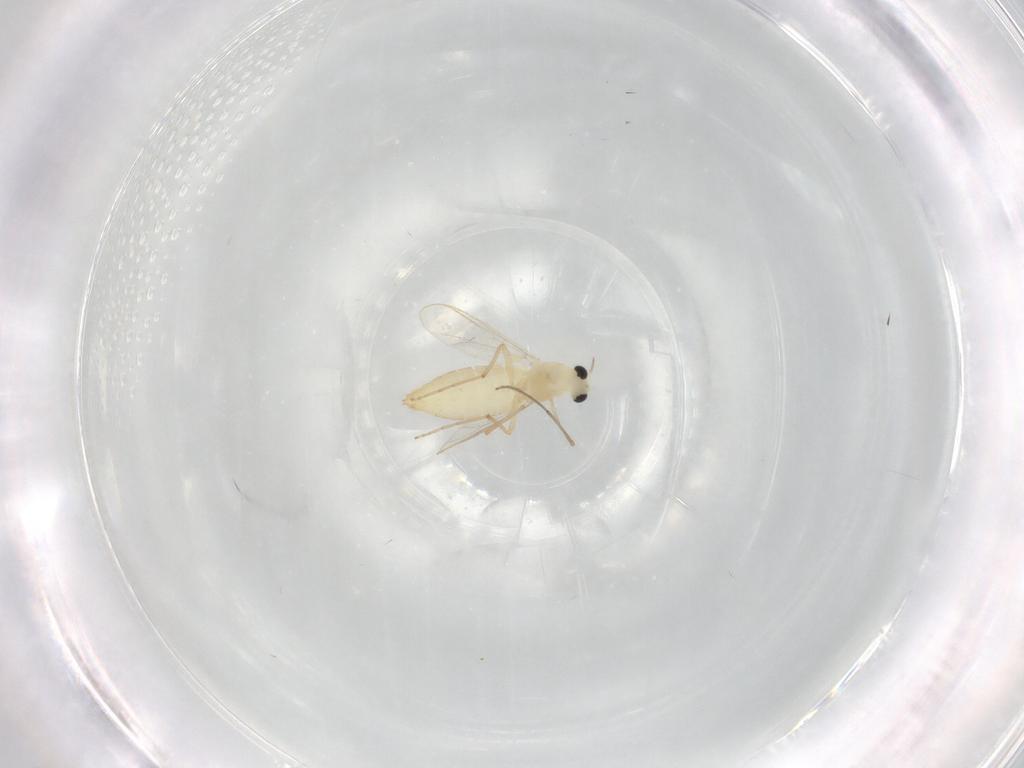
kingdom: Animalia
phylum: Arthropoda
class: Insecta
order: Diptera
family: Chironomidae
